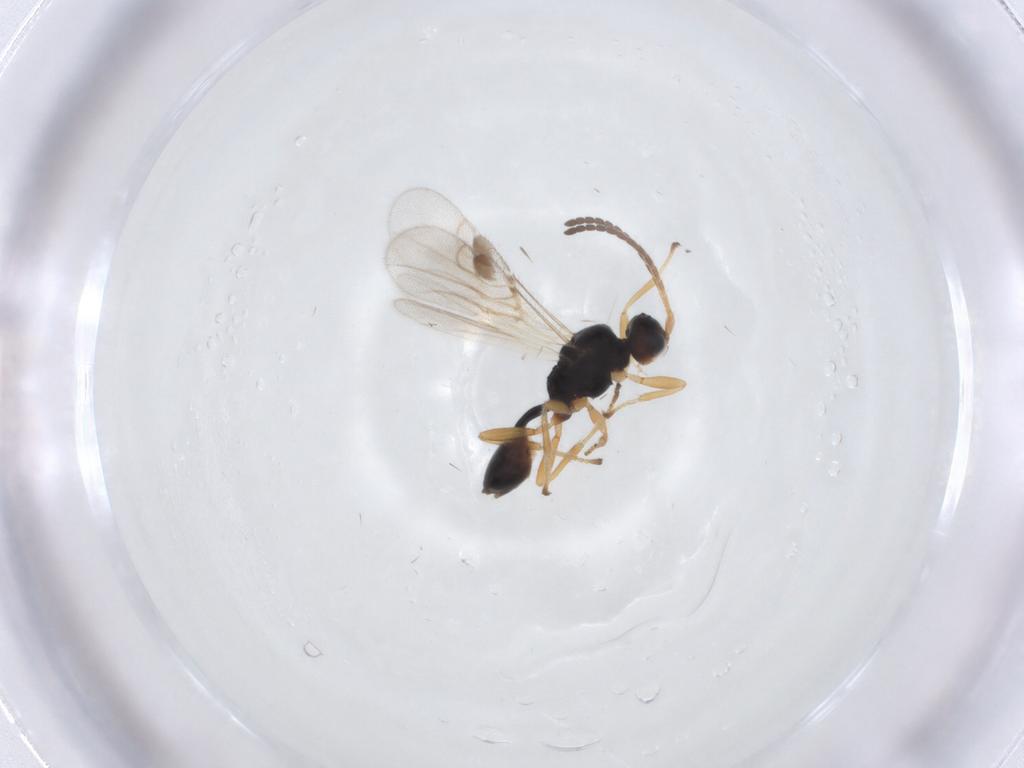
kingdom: Animalia
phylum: Arthropoda
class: Insecta
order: Hymenoptera
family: Braconidae
